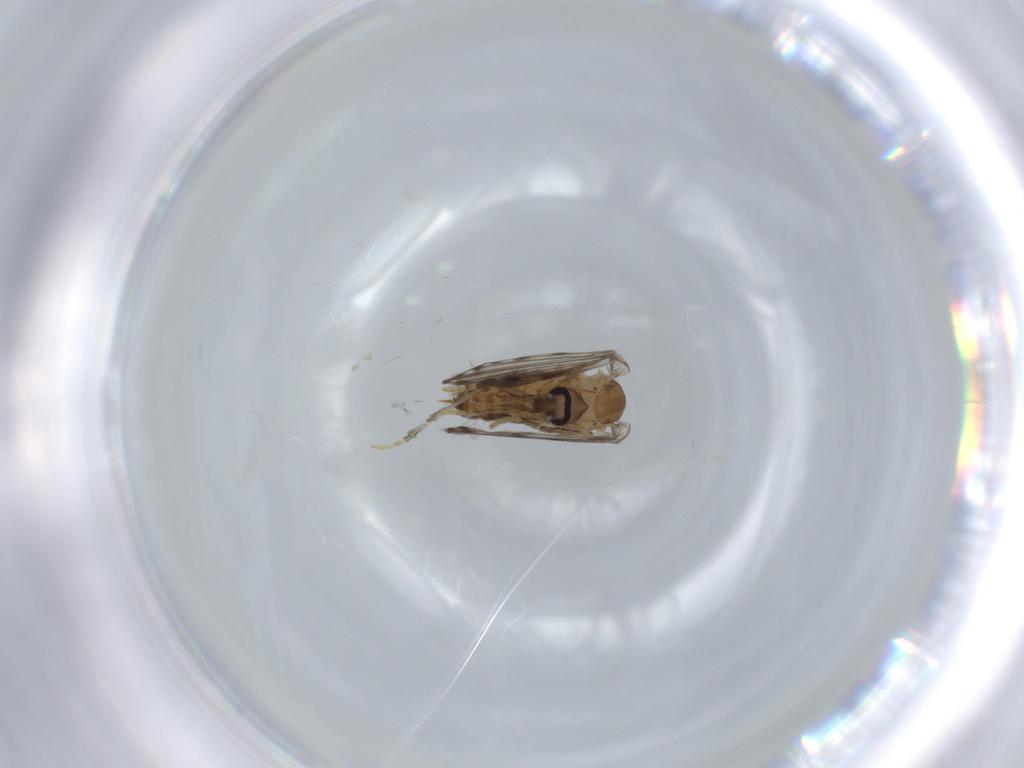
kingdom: Animalia
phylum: Arthropoda
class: Insecta
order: Diptera
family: Psychodidae
